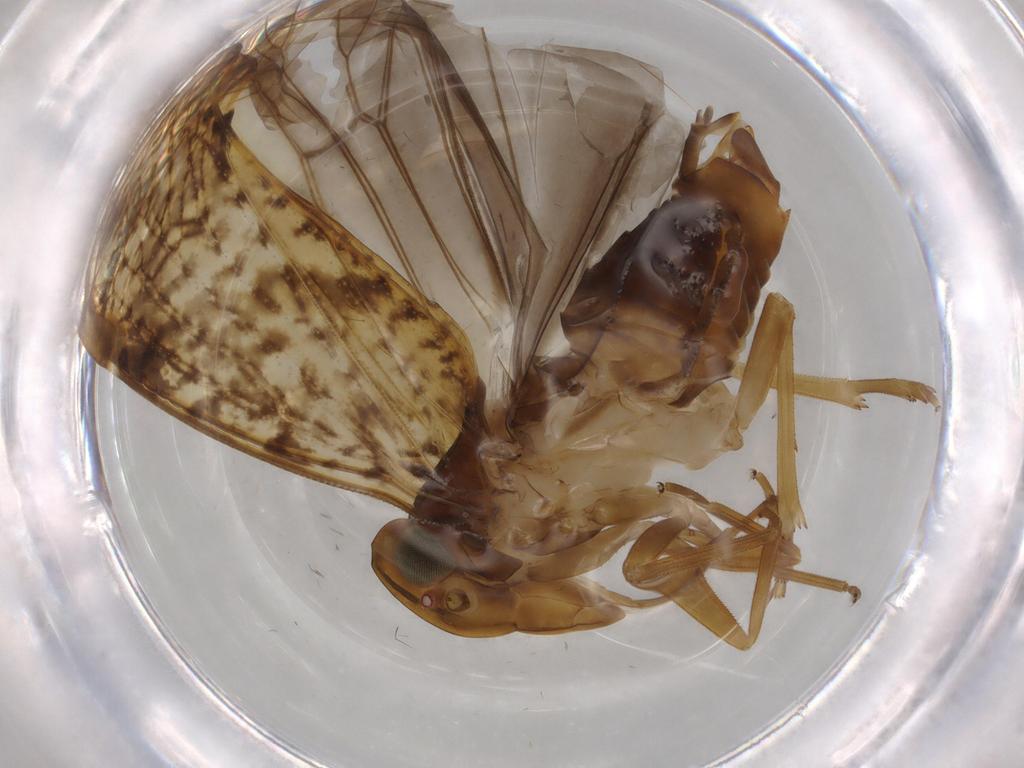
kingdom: Animalia
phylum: Arthropoda
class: Insecta
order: Hemiptera
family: Cixiidae
